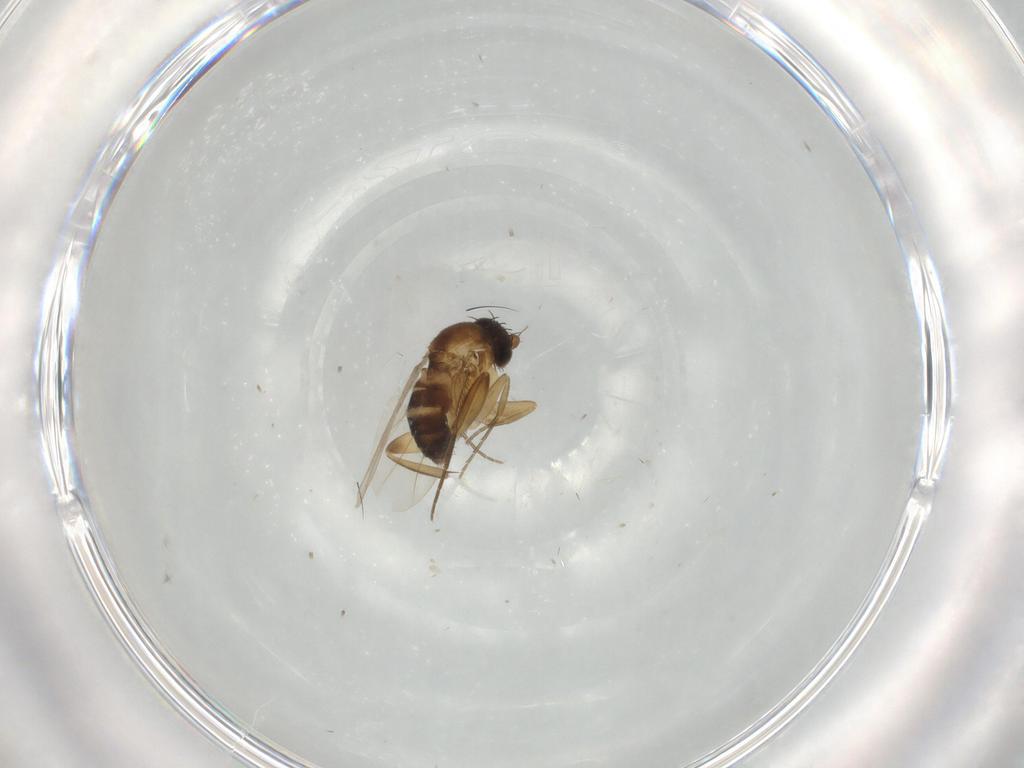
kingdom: Animalia
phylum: Arthropoda
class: Insecta
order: Diptera
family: Phoridae
